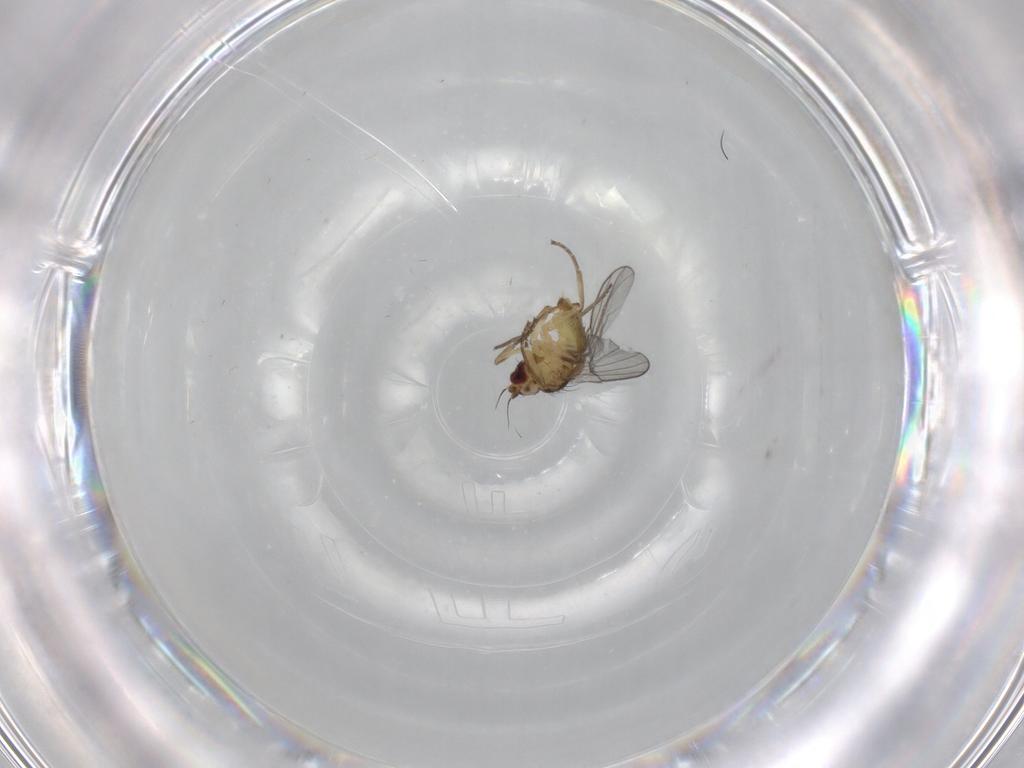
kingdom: Animalia
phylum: Arthropoda
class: Insecta
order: Diptera
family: Agromyzidae
